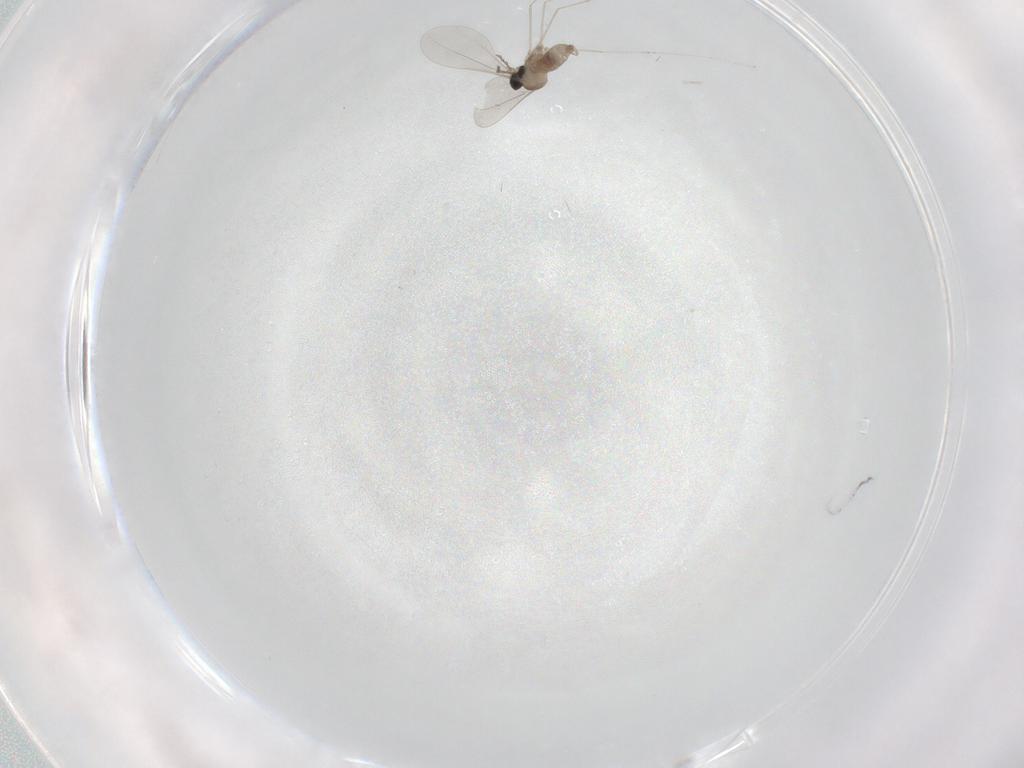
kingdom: Animalia
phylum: Arthropoda
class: Insecta
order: Diptera
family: Cecidomyiidae
